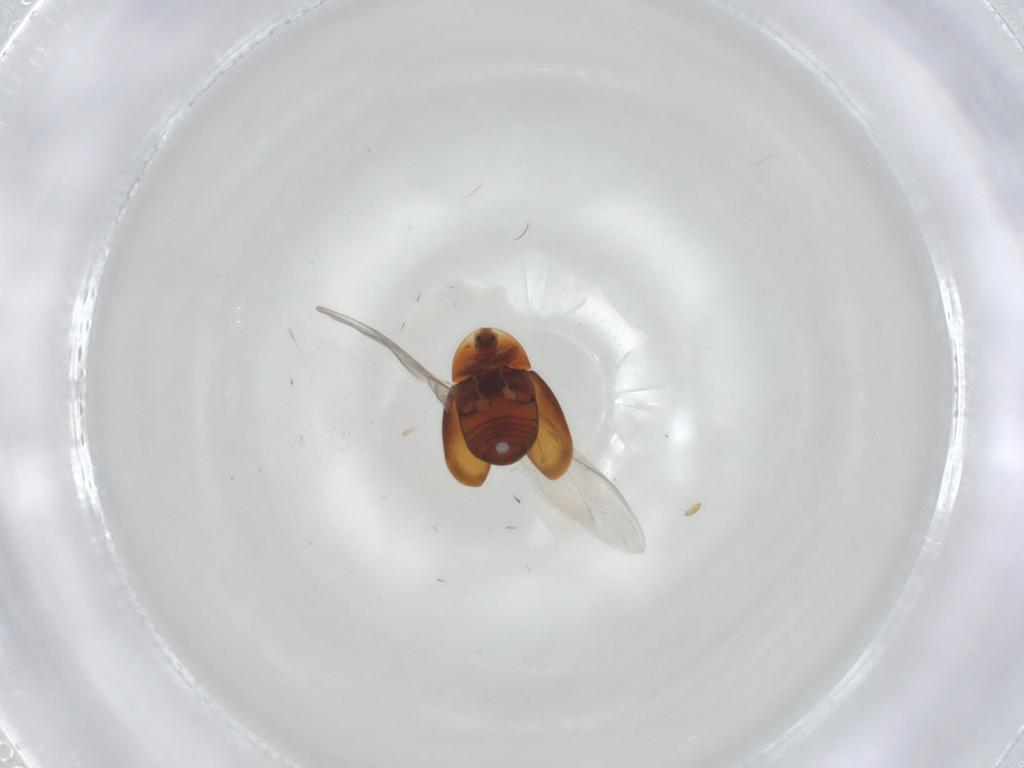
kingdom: Animalia
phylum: Arthropoda
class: Insecta
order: Coleoptera
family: Scraptiidae
